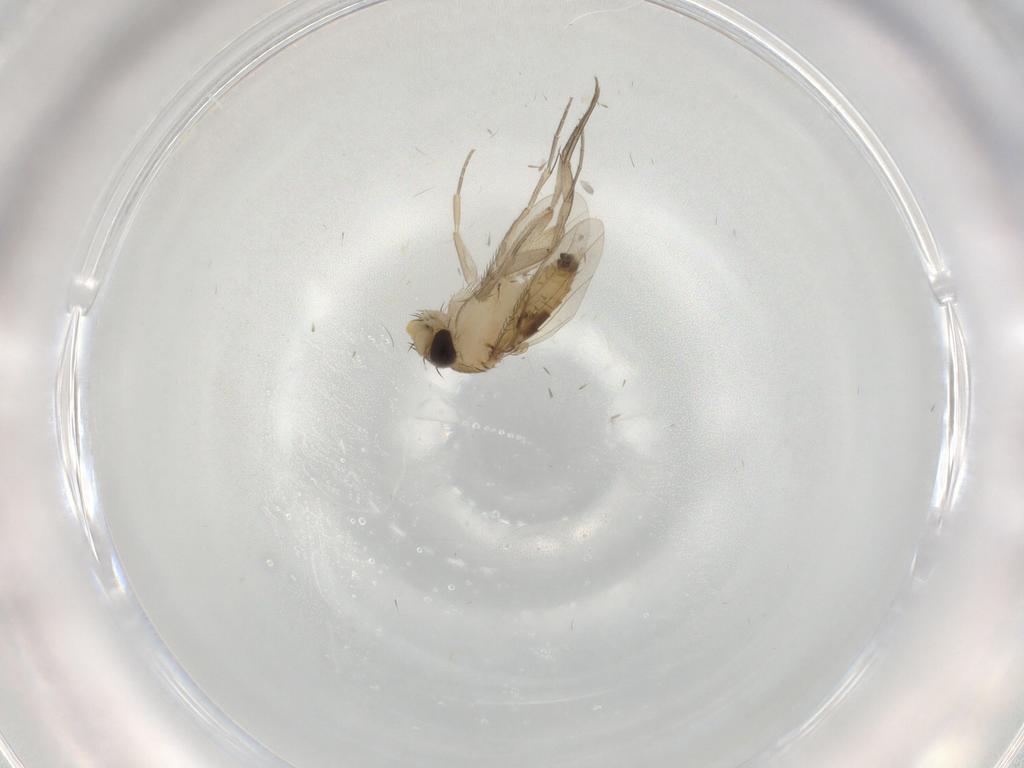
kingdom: Animalia
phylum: Arthropoda
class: Insecta
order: Diptera
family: Phoridae
